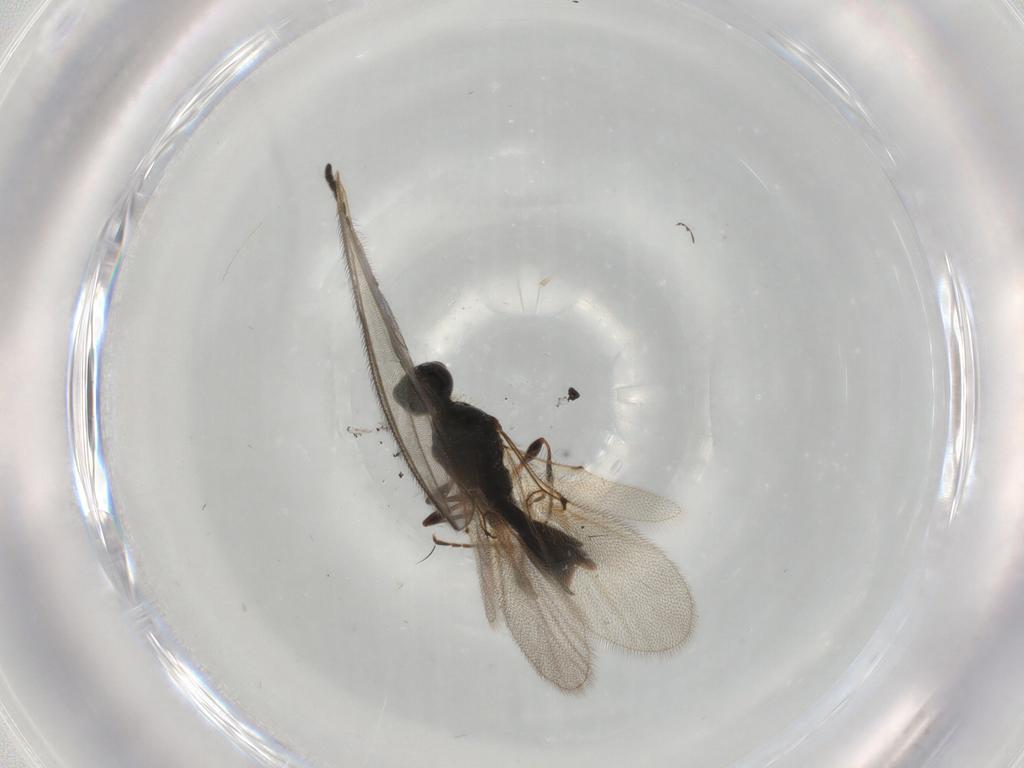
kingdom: Animalia
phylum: Arthropoda
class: Insecta
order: Hymenoptera
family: Diapriidae
